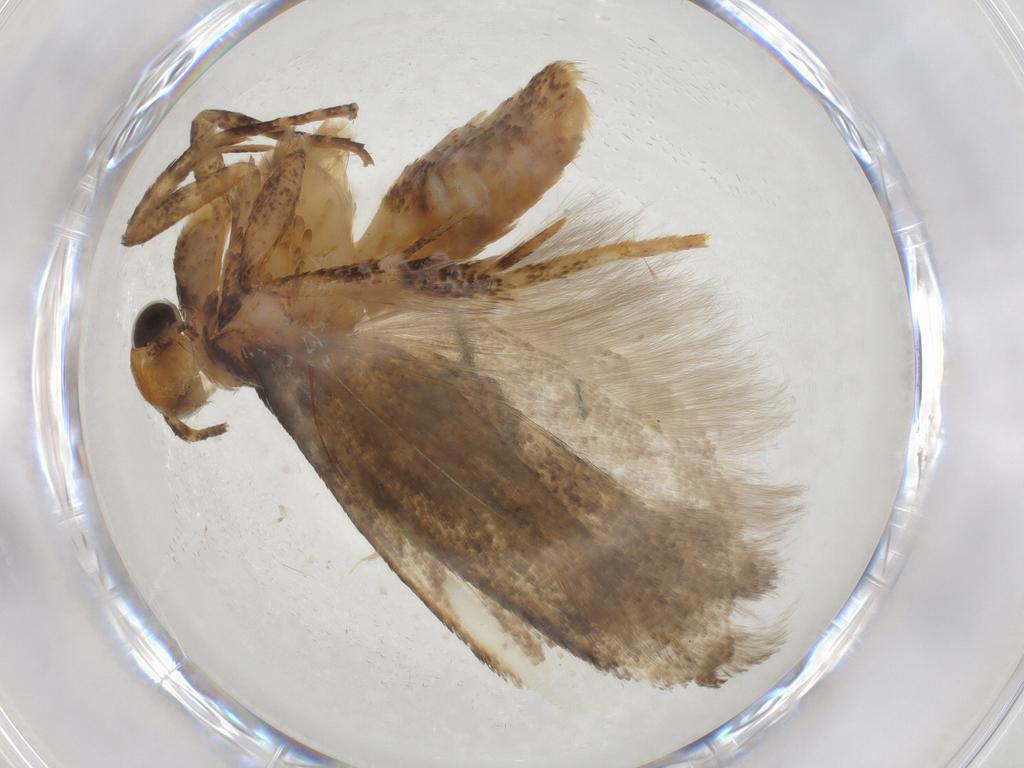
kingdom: Animalia
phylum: Arthropoda
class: Insecta
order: Lepidoptera
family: Gelechiidae
